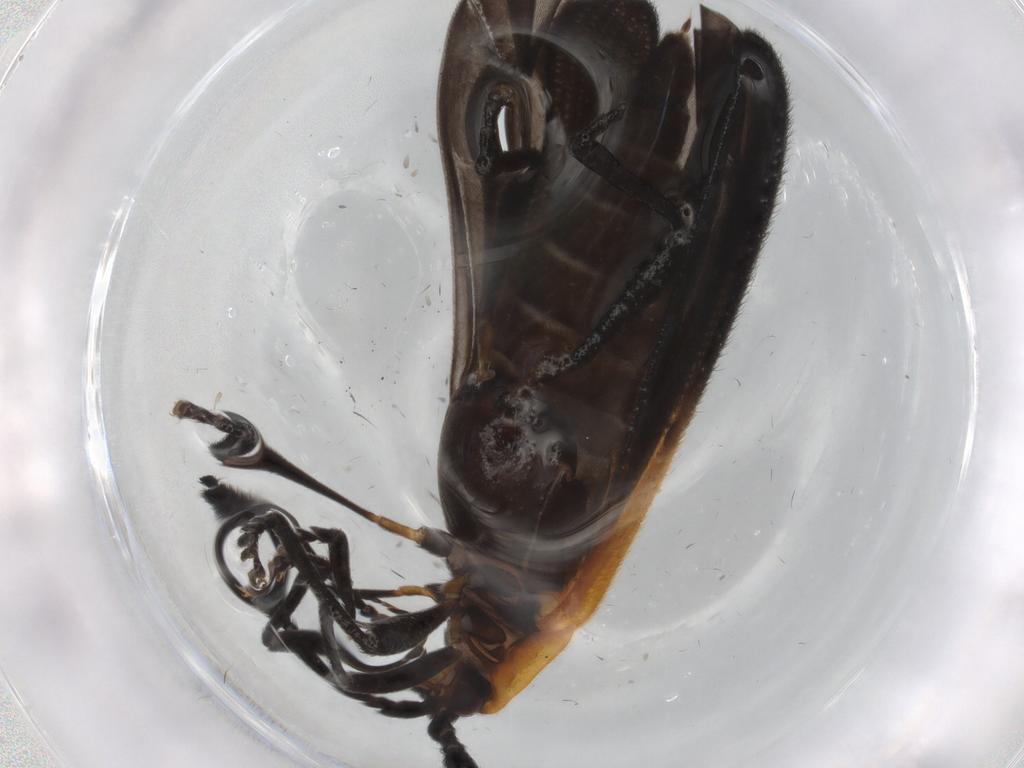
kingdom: Animalia
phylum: Arthropoda
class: Insecta
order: Coleoptera
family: Lycidae
